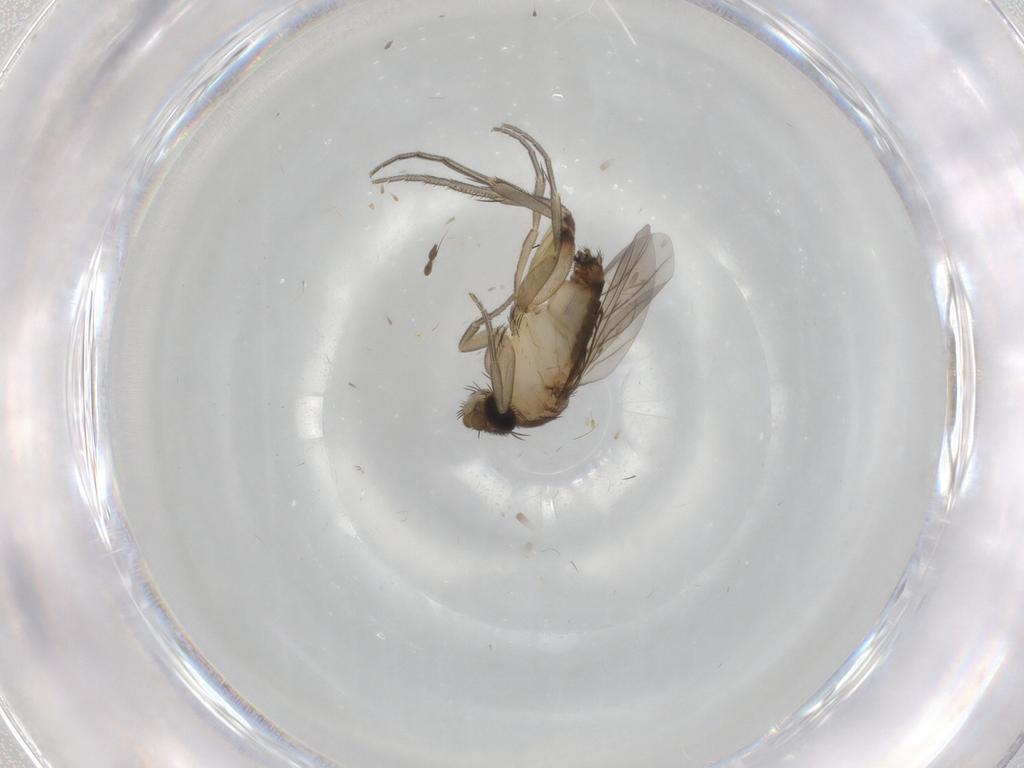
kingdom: Animalia
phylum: Arthropoda
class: Insecta
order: Diptera
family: Phoridae
